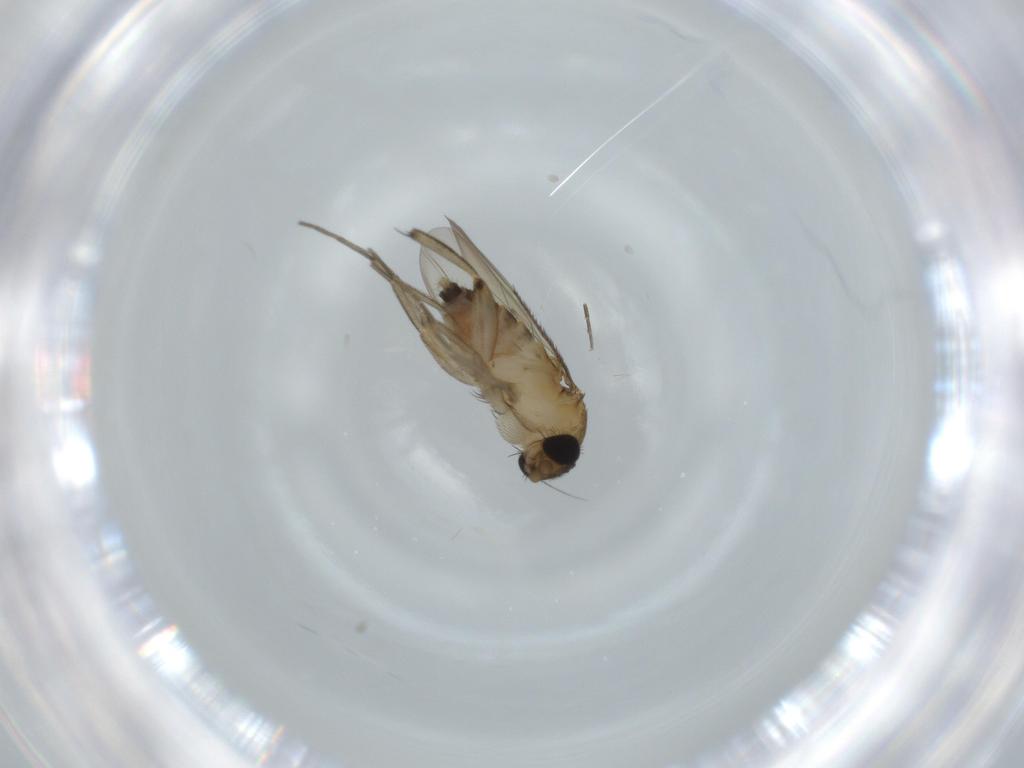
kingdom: Animalia
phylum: Arthropoda
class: Insecta
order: Diptera
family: Phoridae
